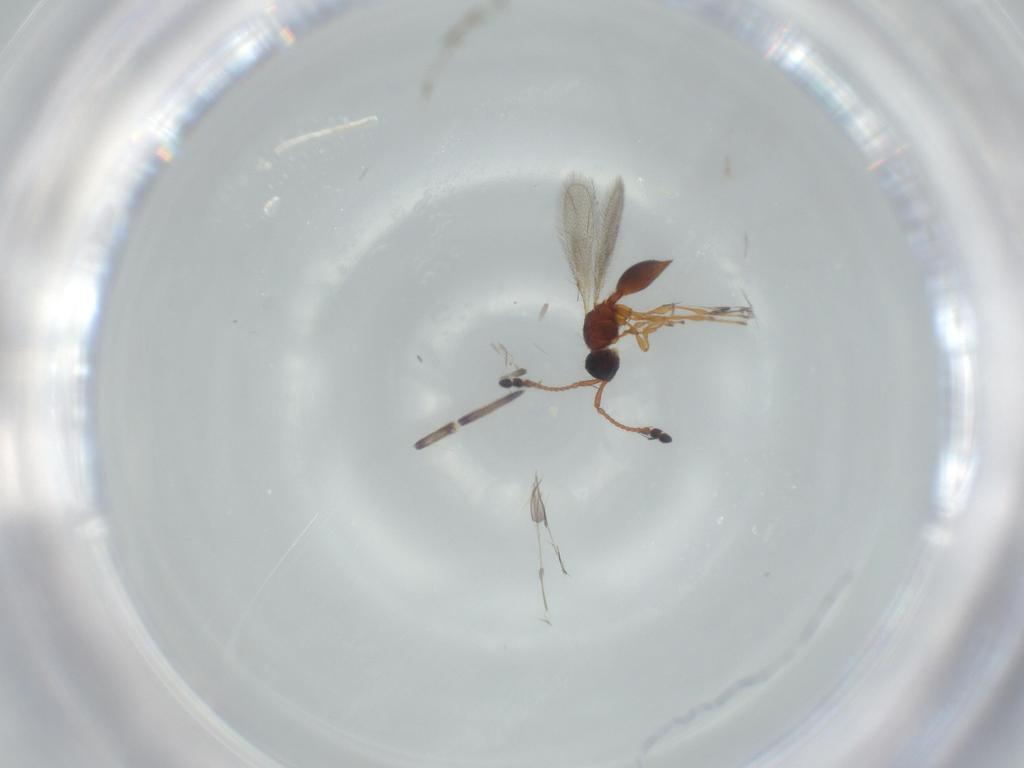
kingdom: Animalia
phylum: Arthropoda
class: Insecta
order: Hymenoptera
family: Diapriidae
